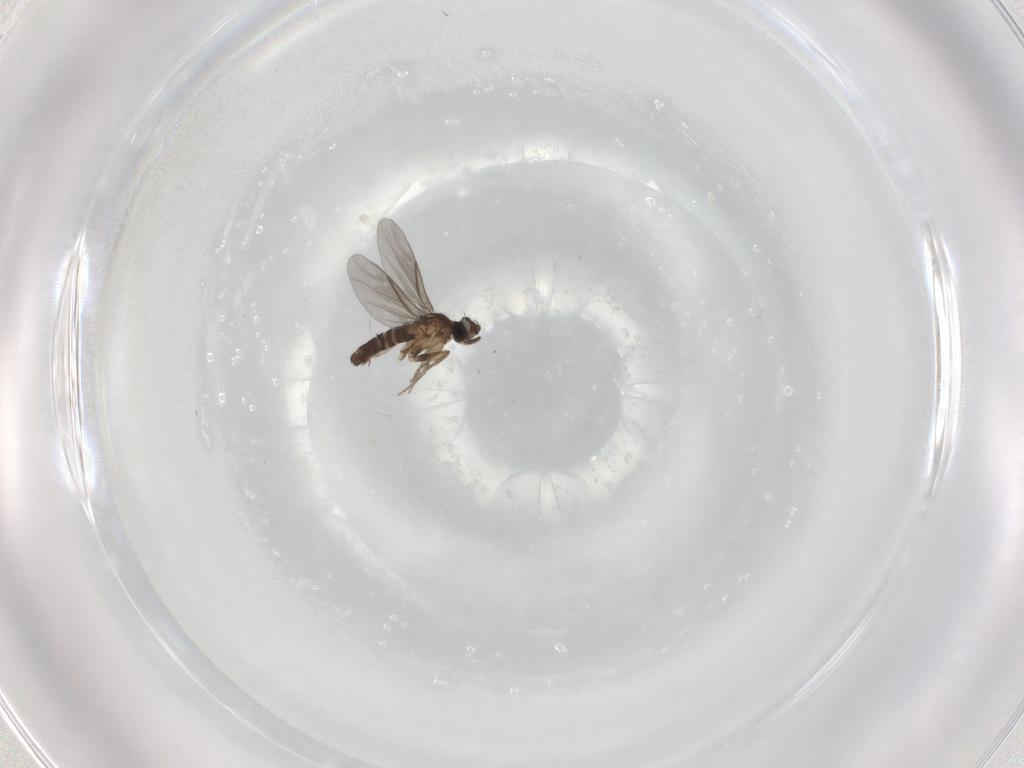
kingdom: Animalia
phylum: Arthropoda
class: Insecta
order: Diptera
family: Phoridae
